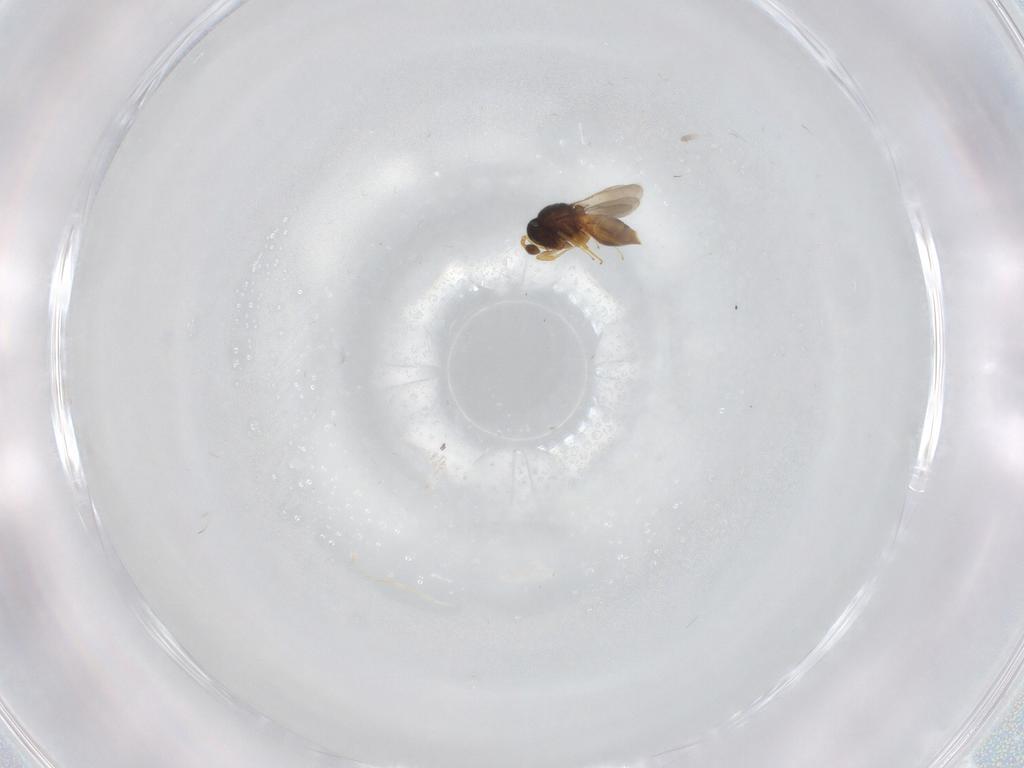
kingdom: Animalia
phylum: Arthropoda
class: Insecta
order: Hymenoptera
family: Scelionidae
